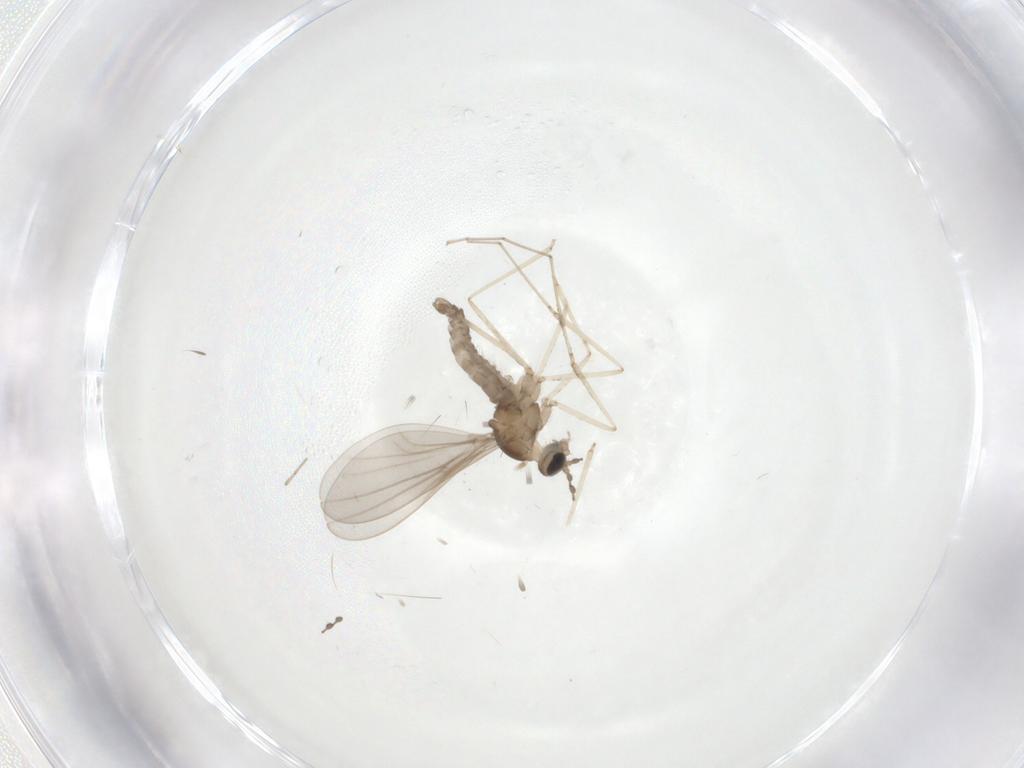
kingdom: Animalia
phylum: Arthropoda
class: Insecta
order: Diptera
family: Cecidomyiidae
